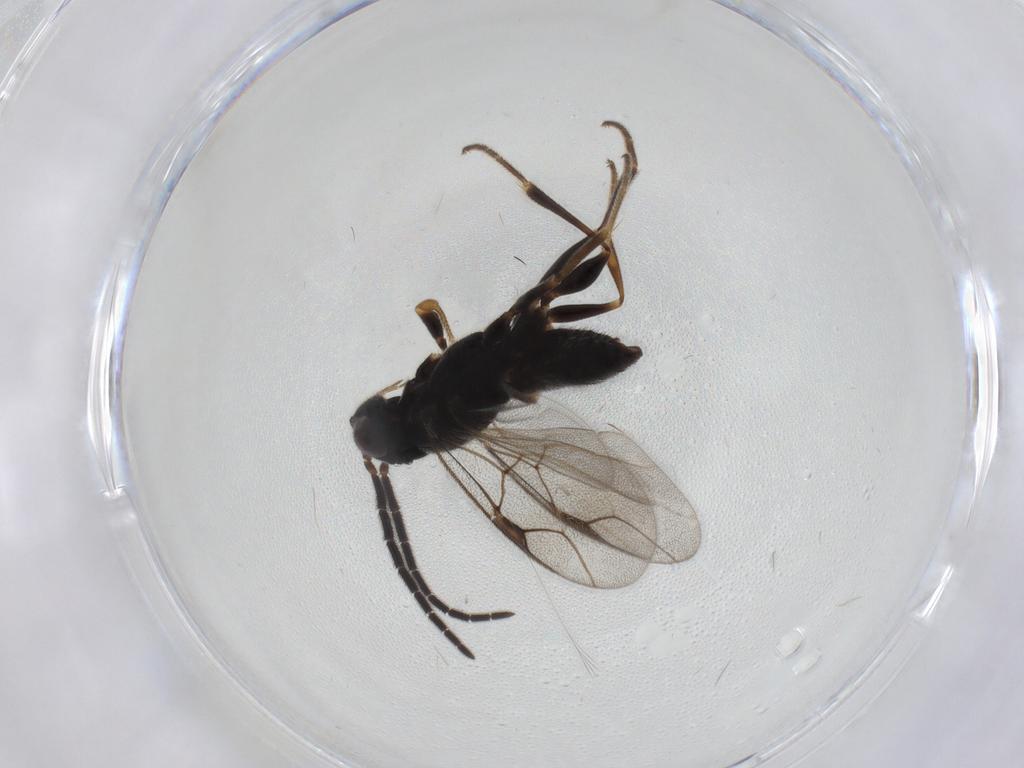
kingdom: Animalia
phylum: Arthropoda
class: Insecta
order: Hymenoptera
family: Dryinidae
